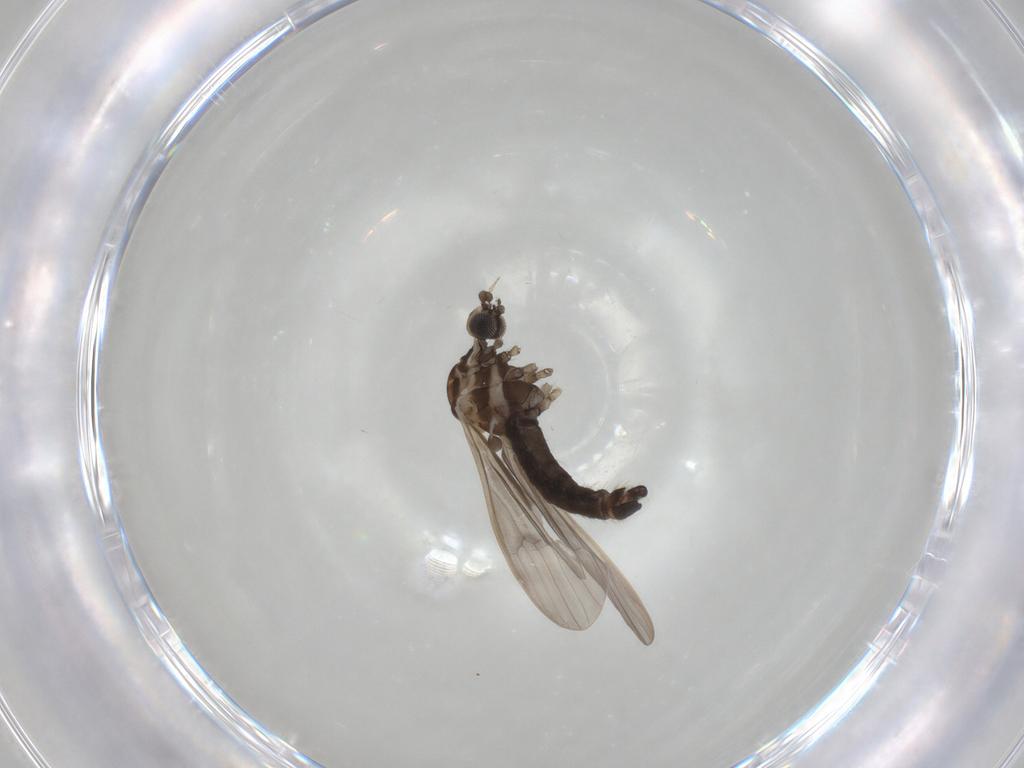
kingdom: Animalia
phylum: Arthropoda
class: Insecta
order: Diptera
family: Limoniidae
